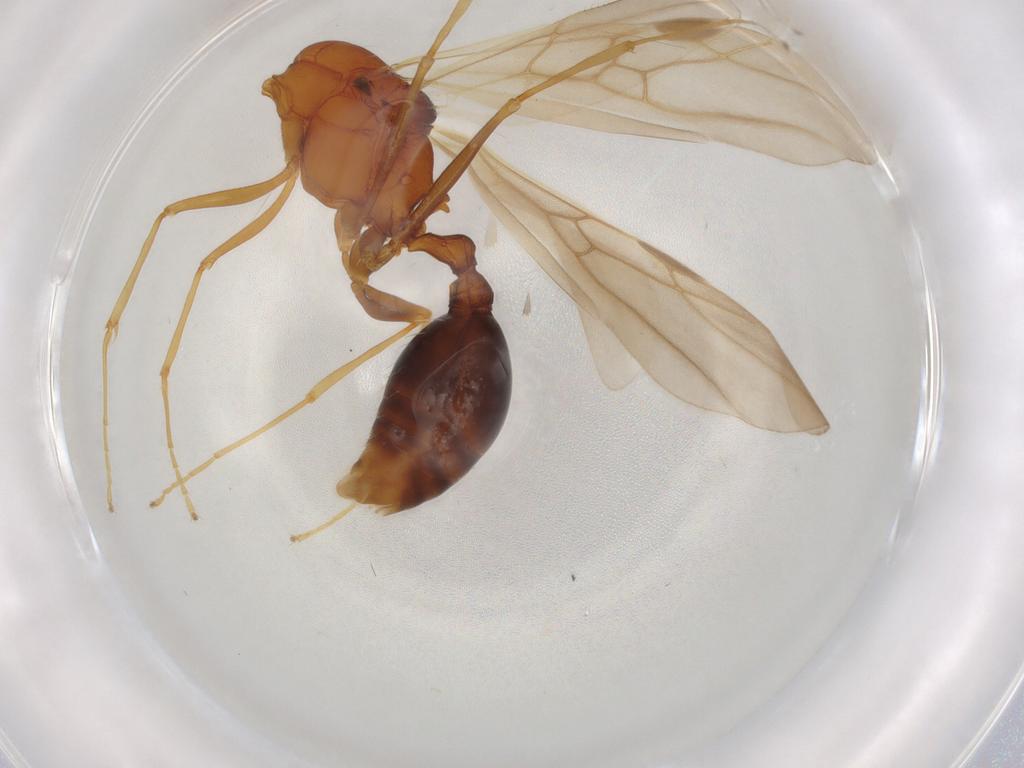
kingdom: Animalia
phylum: Arthropoda
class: Insecta
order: Hymenoptera
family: Formicidae
